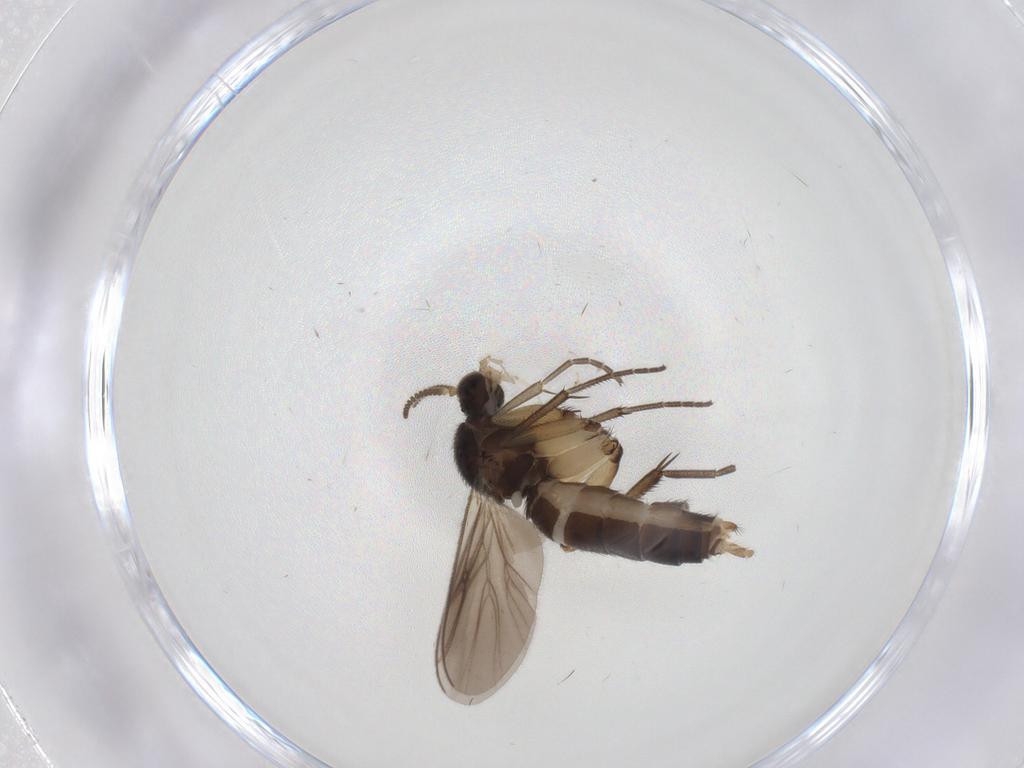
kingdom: Animalia
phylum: Arthropoda
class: Insecta
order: Diptera
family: Mycetophilidae
